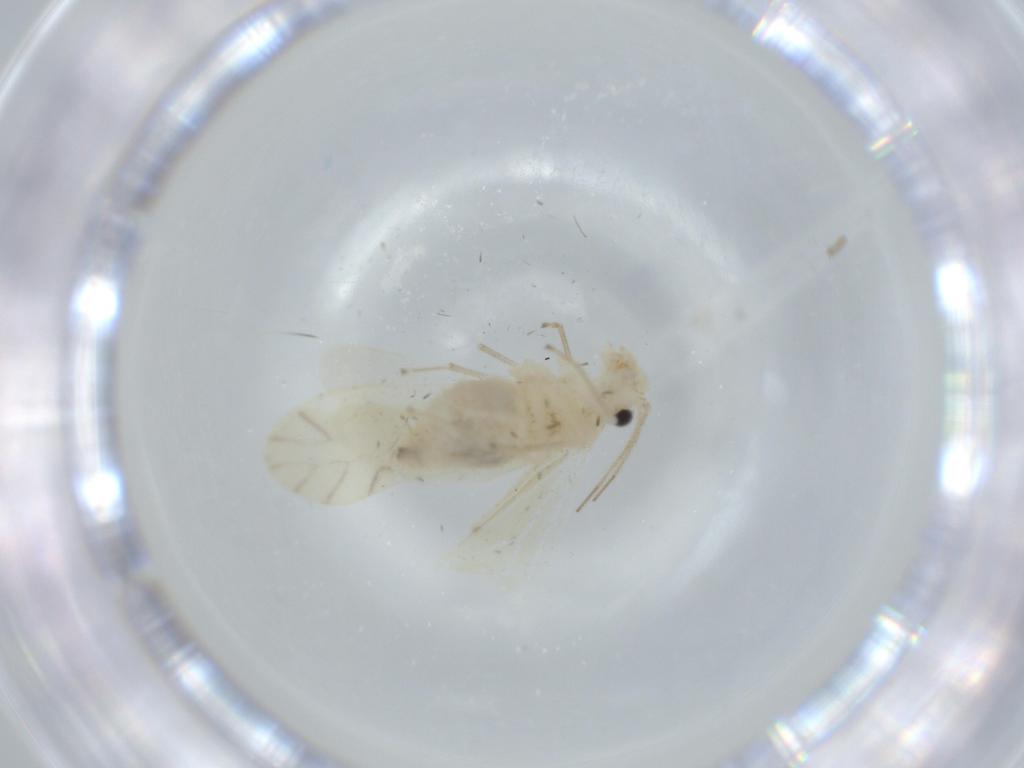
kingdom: Animalia
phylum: Arthropoda
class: Insecta
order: Psocodea
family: Caeciliusidae
